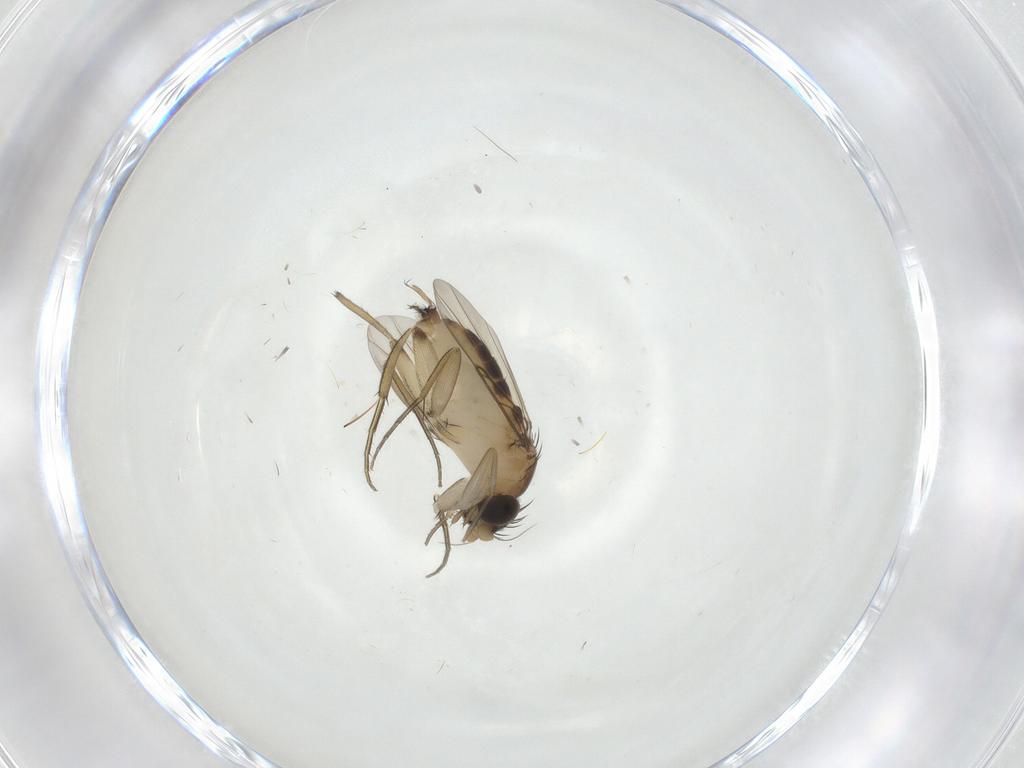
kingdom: Animalia
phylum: Arthropoda
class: Insecta
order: Diptera
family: Phoridae
